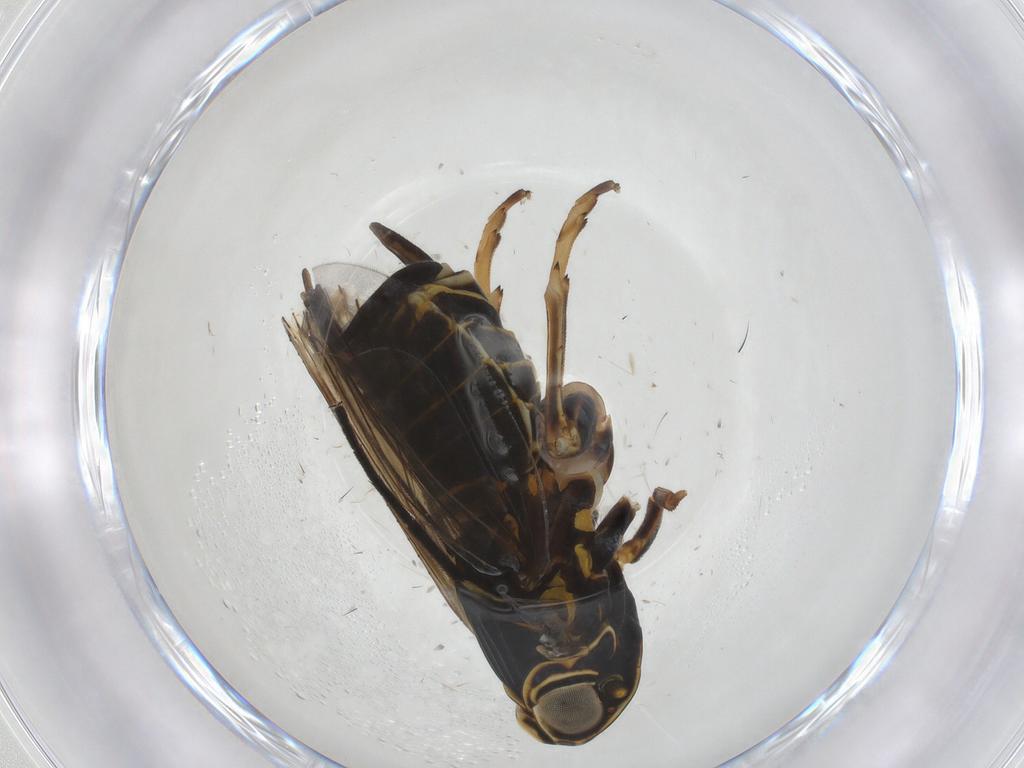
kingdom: Animalia
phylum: Arthropoda
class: Insecta
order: Hemiptera
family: Cixiidae
